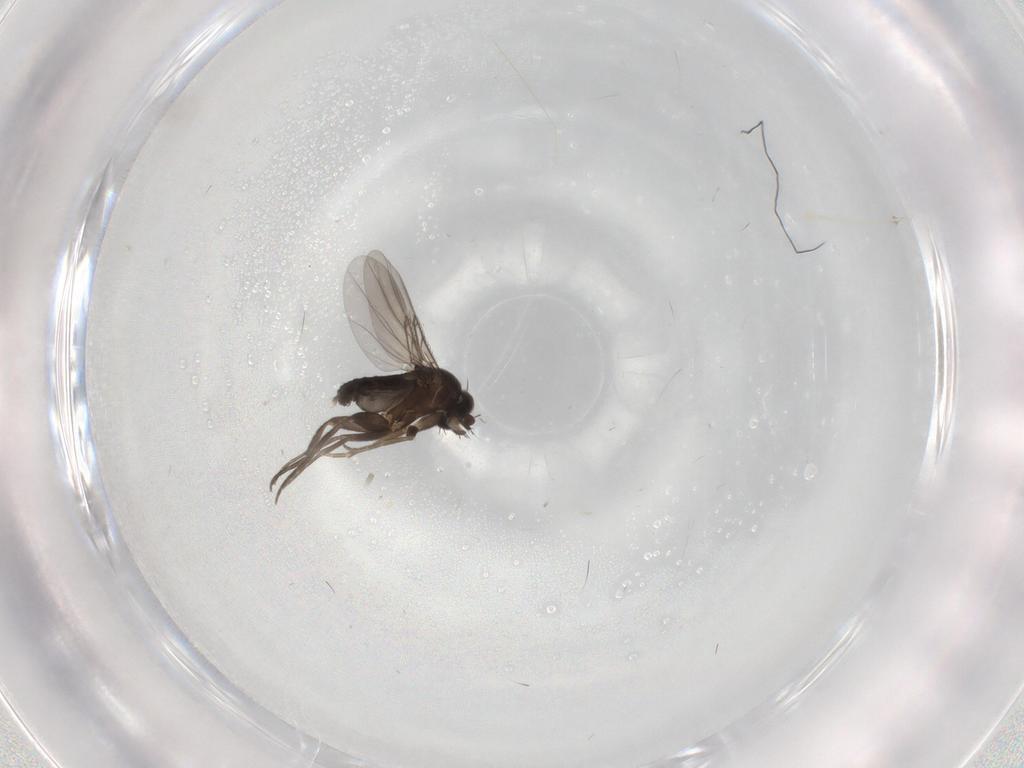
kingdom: Animalia
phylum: Arthropoda
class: Insecta
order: Diptera
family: Phoridae
